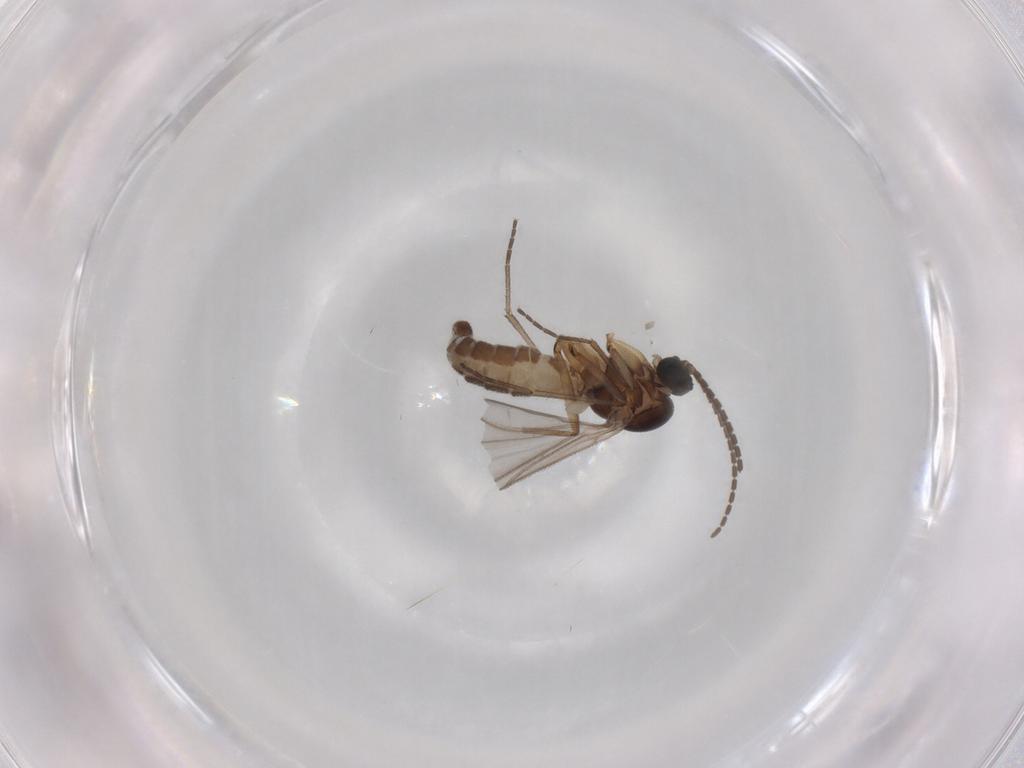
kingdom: Animalia
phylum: Arthropoda
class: Insecta
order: Diptera
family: Sciaridae
